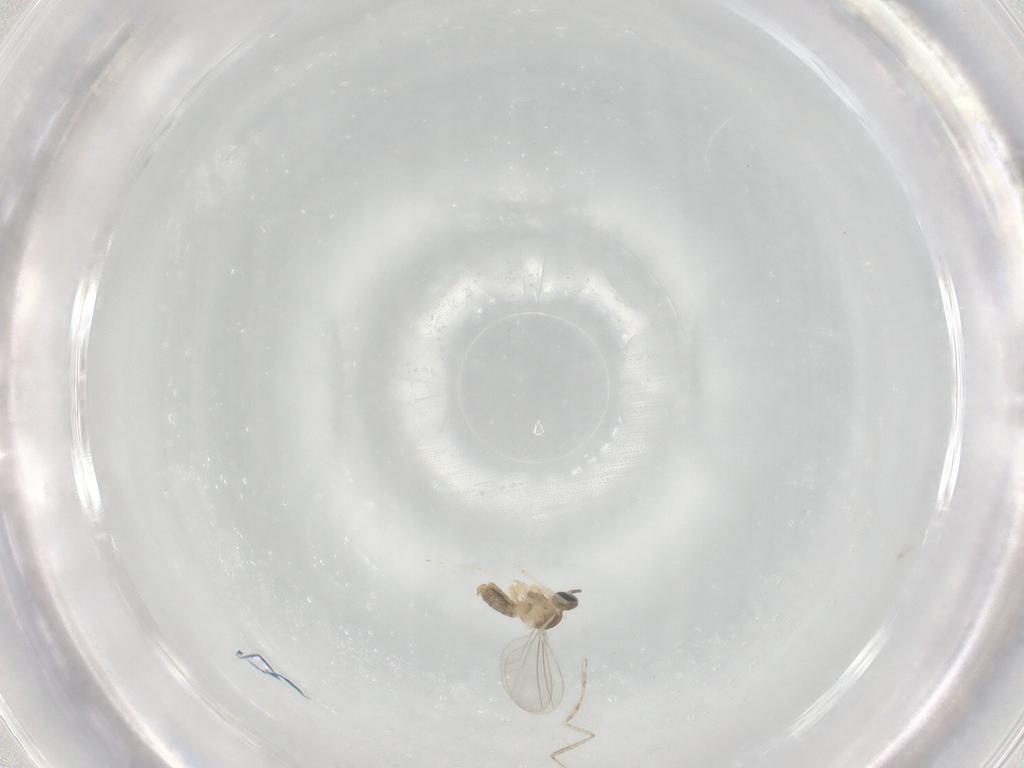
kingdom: Animalia
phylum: Arthropoda
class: Insecta
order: Diptera
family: Cecidomyiidae
